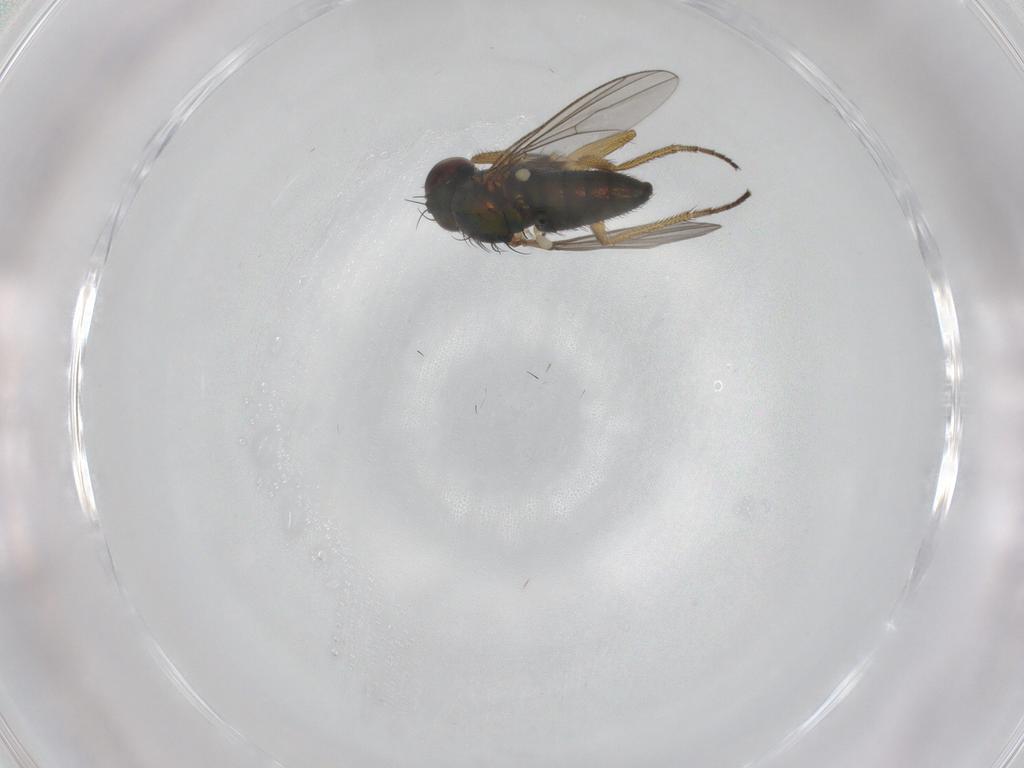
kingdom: Animalia
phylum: Arthropoda
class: Insecta
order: Diptera
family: Dolichopodidae
